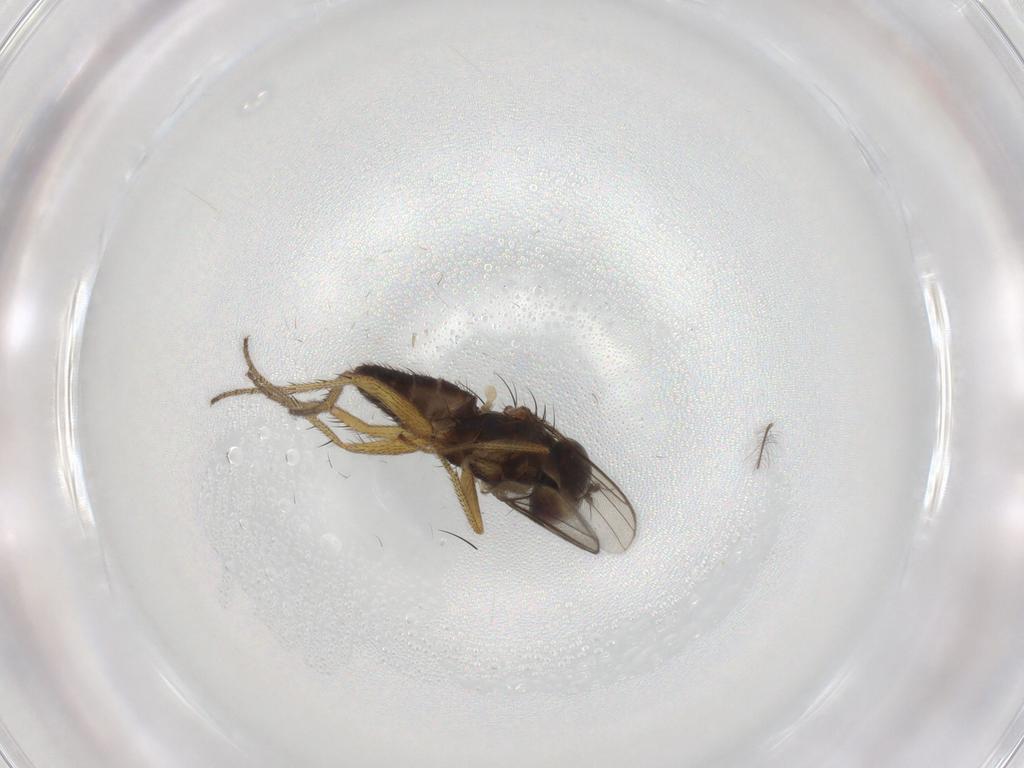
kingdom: Animalia
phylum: Arthropoda
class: Insecta
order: Diptera
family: Dolichopodidae
